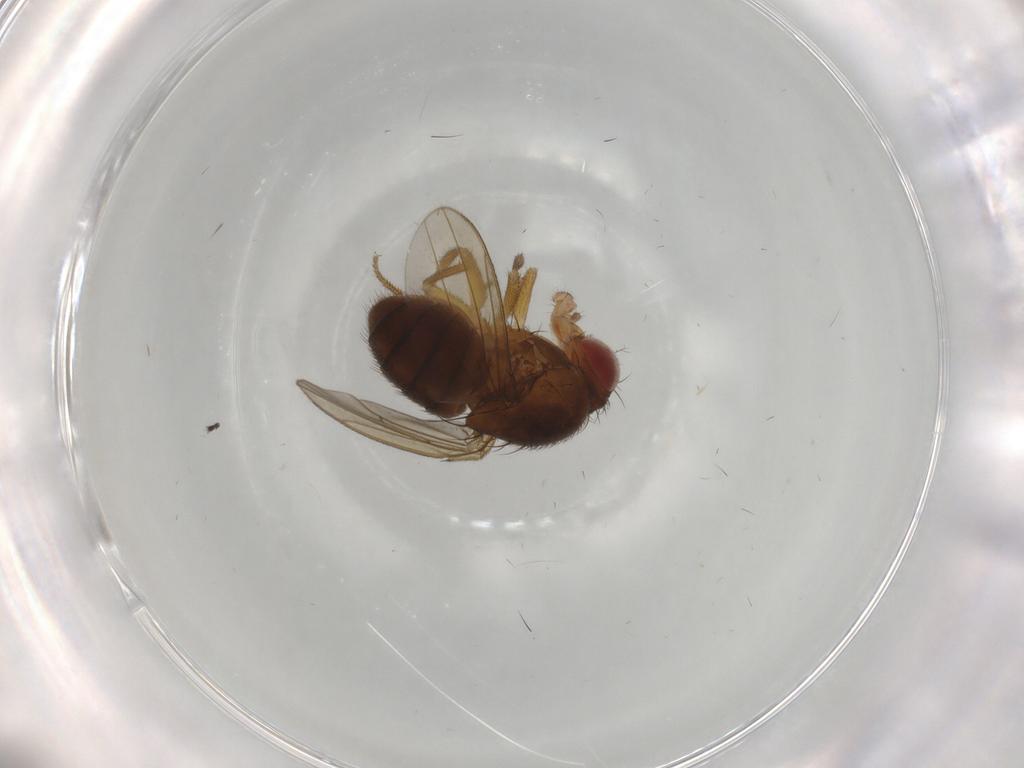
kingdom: Animalia
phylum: Arthropoda
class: Insecta
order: Diptera
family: Drosophilidae
